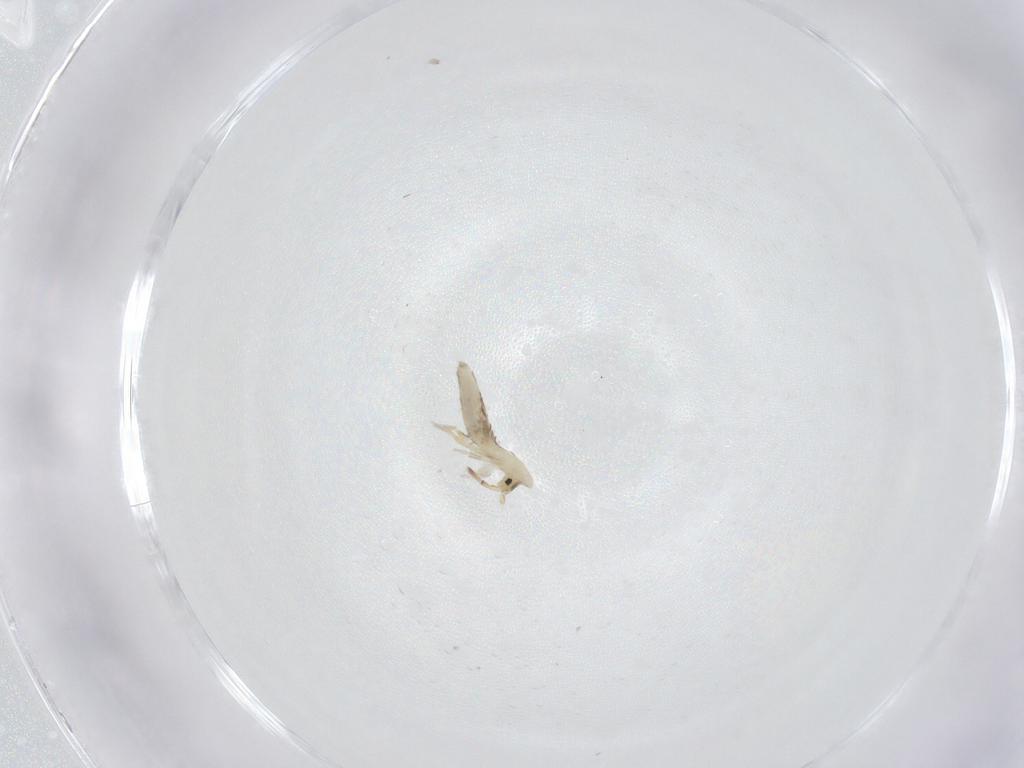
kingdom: Animalia
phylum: Arthropoda
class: Collembola
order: Entomobryomorpha
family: Entomobryidae
